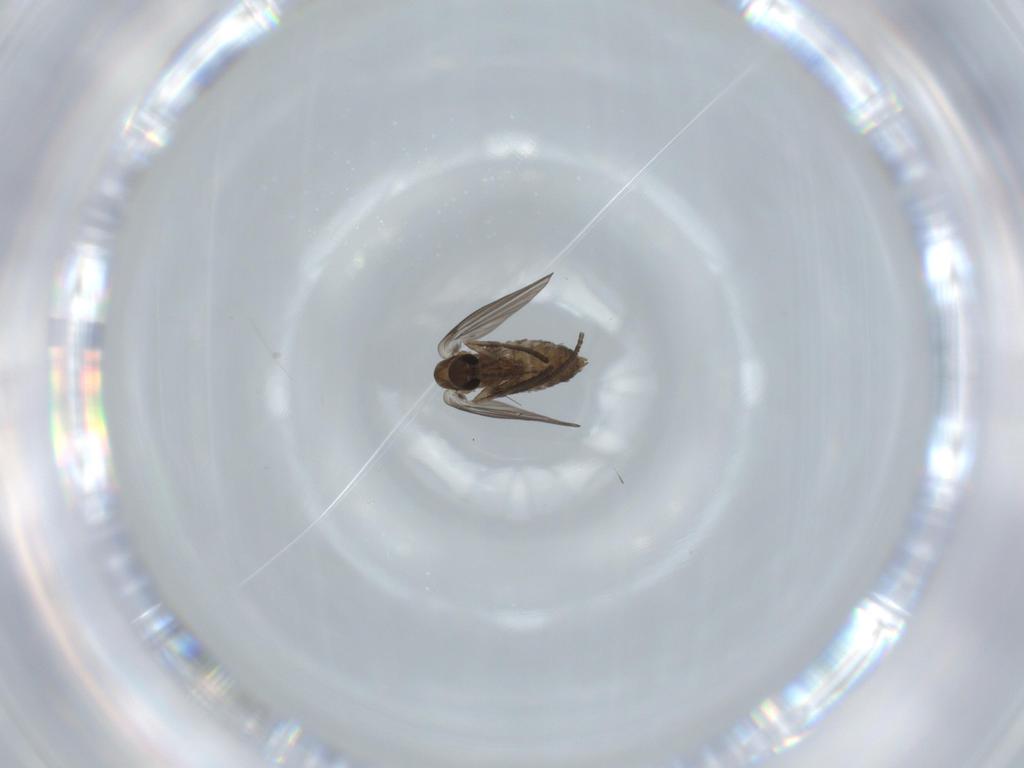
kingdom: Animalia
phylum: Arthropoda
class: Insecta
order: Diptera
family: Psychodidae
